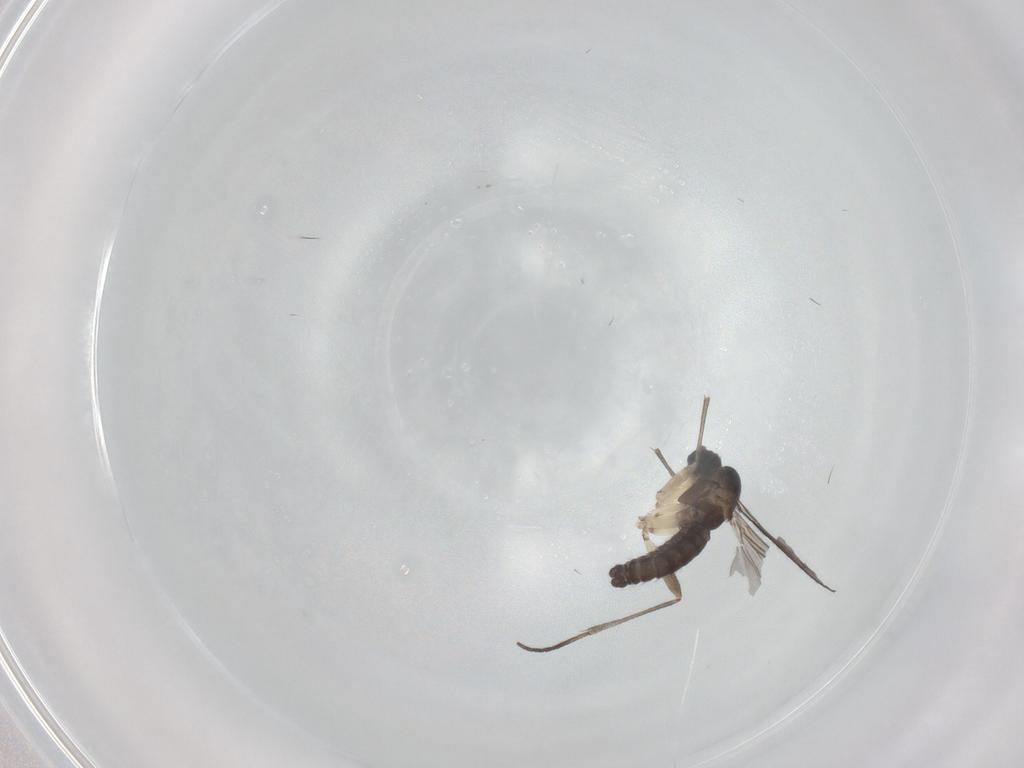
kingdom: Animalia
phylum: Arthropoda
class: Insecta
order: Diptera
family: Sciaridae
